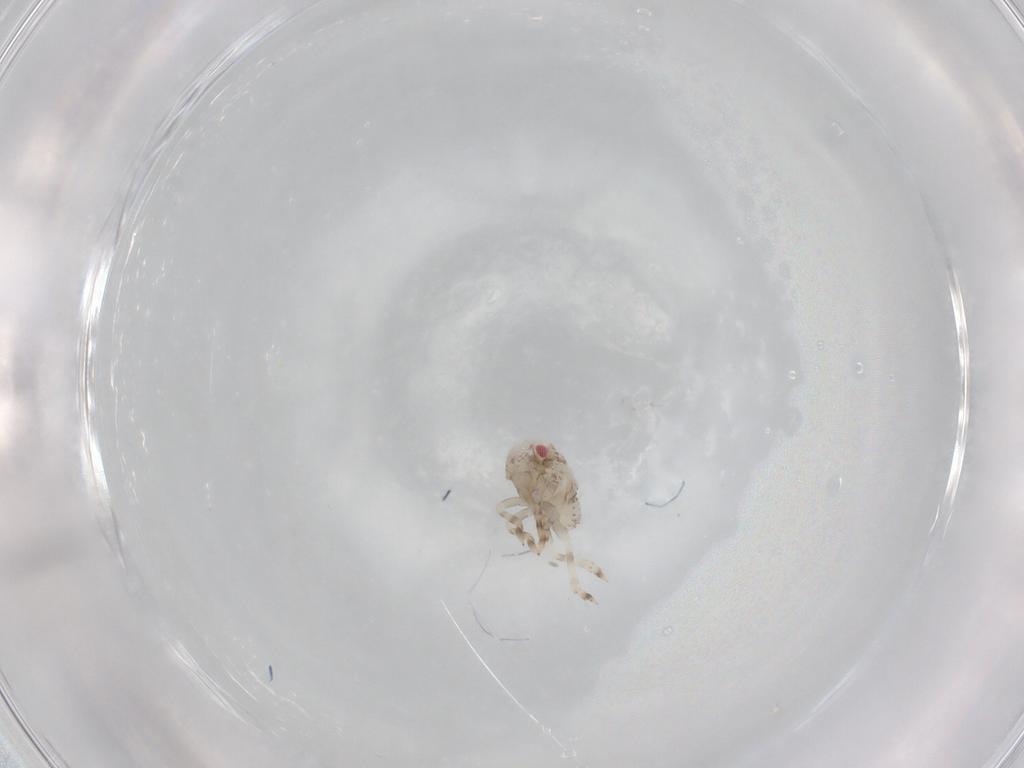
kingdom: Animalia
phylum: Arthropoda
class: Insecta
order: Hemiptera
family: Acanaloniidae
